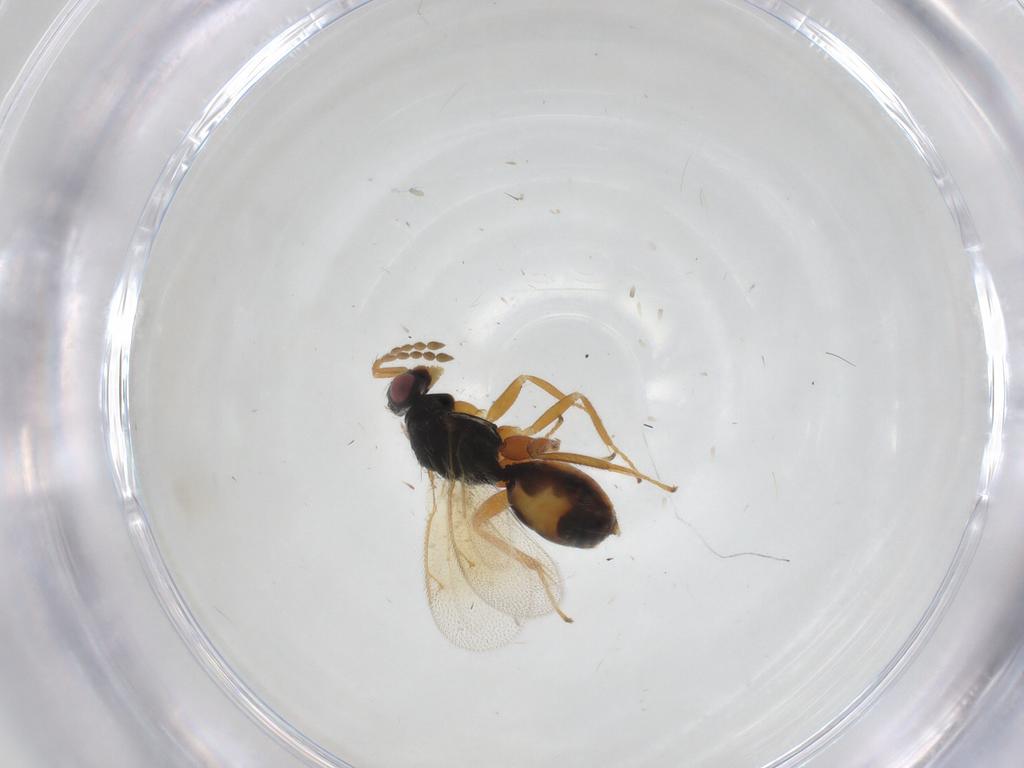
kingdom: Animalia
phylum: Arthropoda
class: Insecta
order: Hymenoptera
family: Eulophidae
